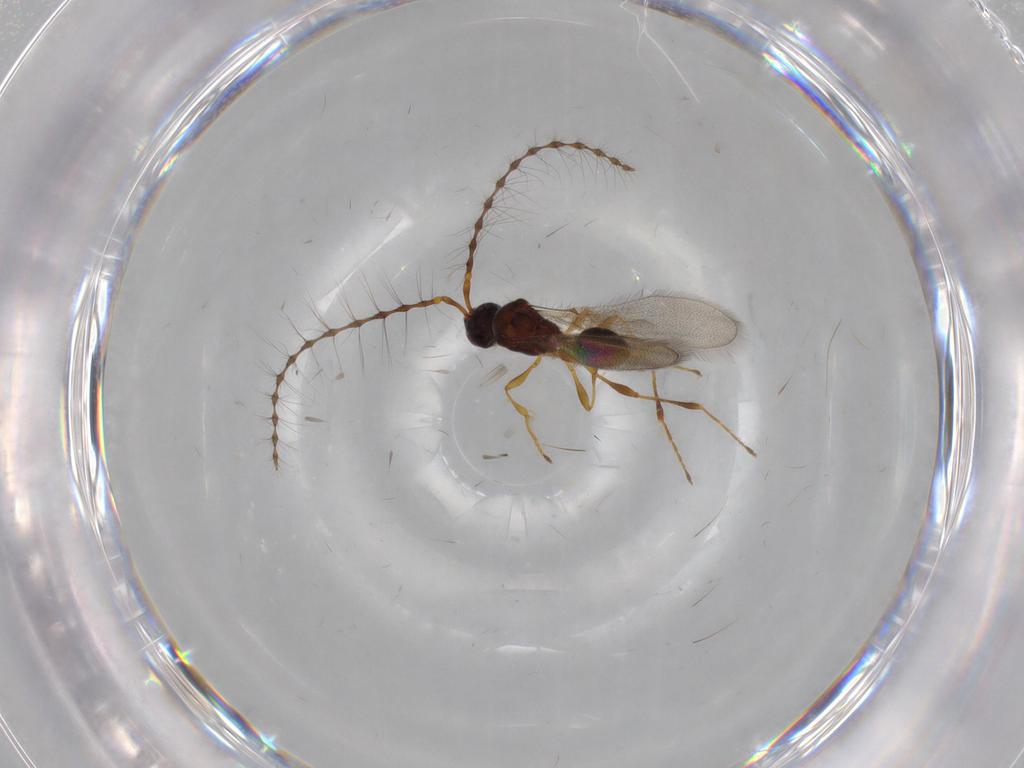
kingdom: Animalia
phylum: Arthropoda
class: Insecta
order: Hymenoptera
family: Diapriidae
